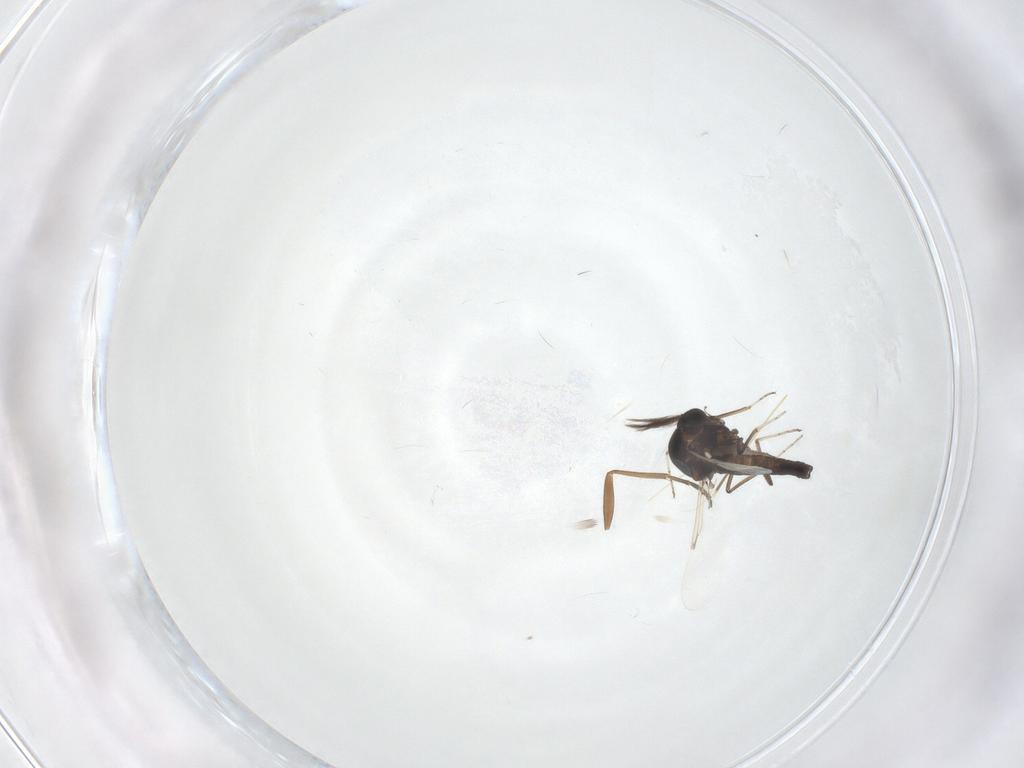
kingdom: Animalia
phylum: Arthropoda
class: Insecta
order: Diptera
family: Ceratopogonidae
